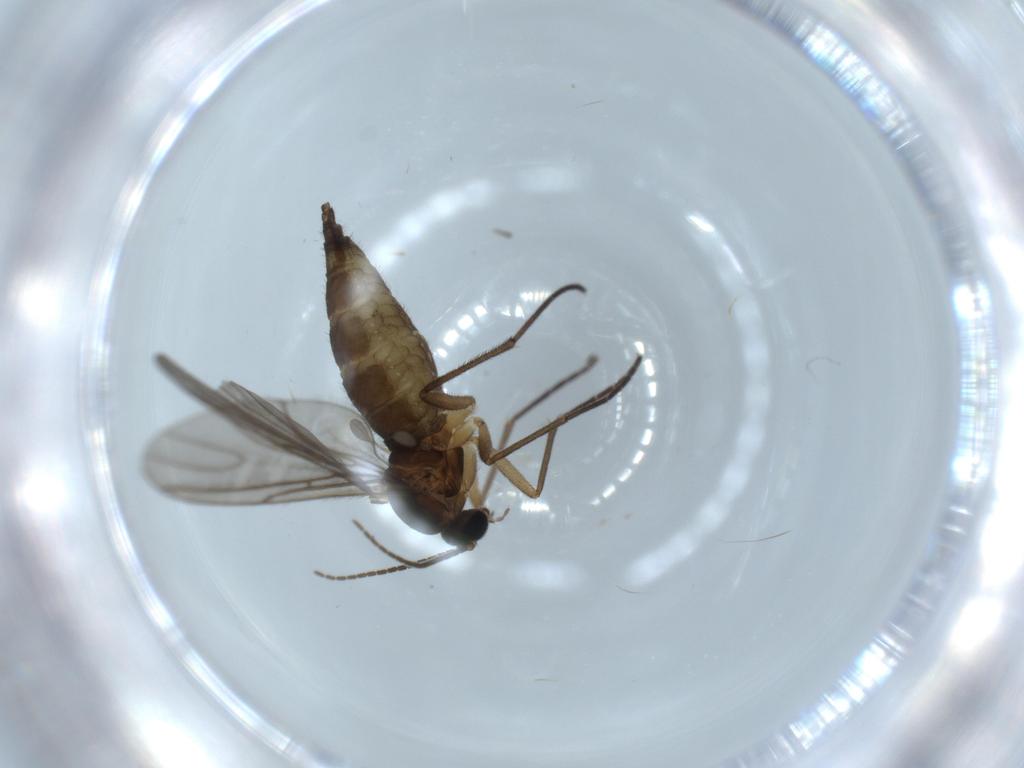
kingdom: Animalia
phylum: Arthropoda
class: Insecta
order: Diptera
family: Sciaridae
